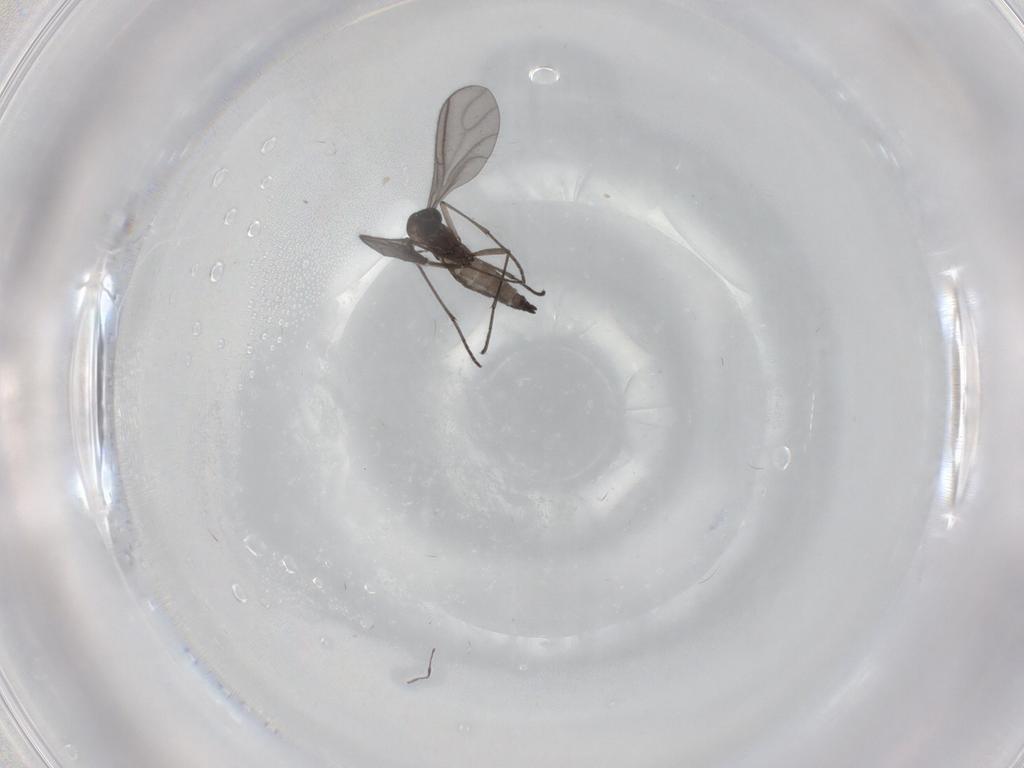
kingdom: Animalia
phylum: Arthropoda
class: Insecta
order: Diptera
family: Sciaridae
